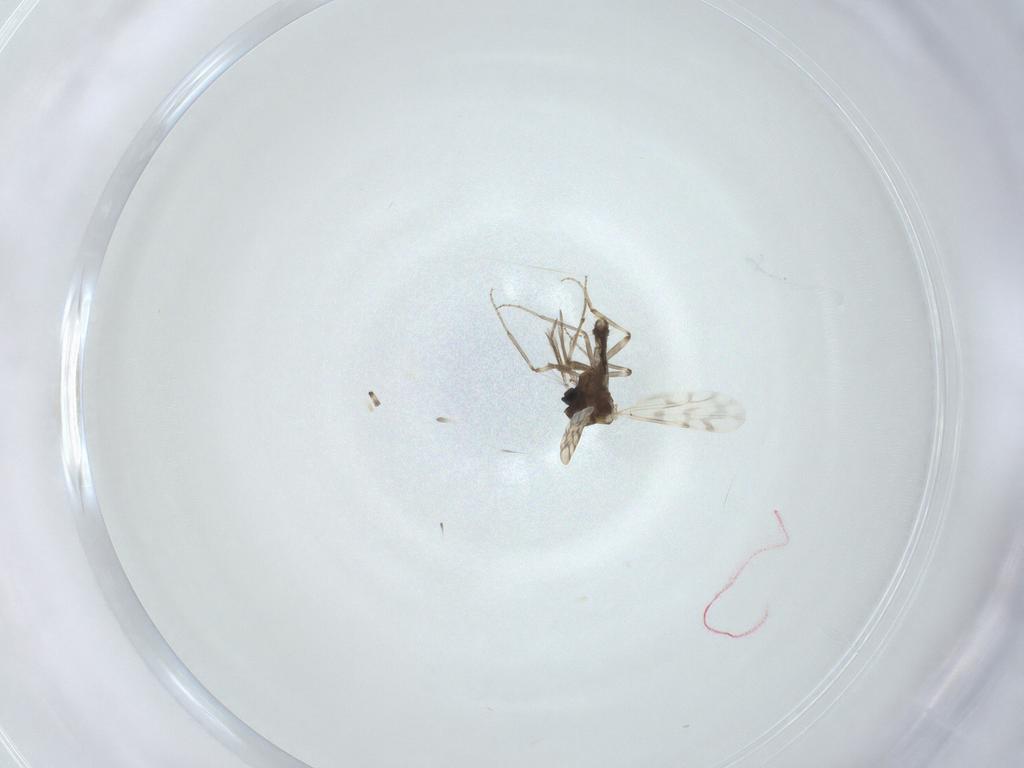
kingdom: Animalia
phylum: Arthropoda
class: Insecta
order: Diptera
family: Ceratopogonidae
